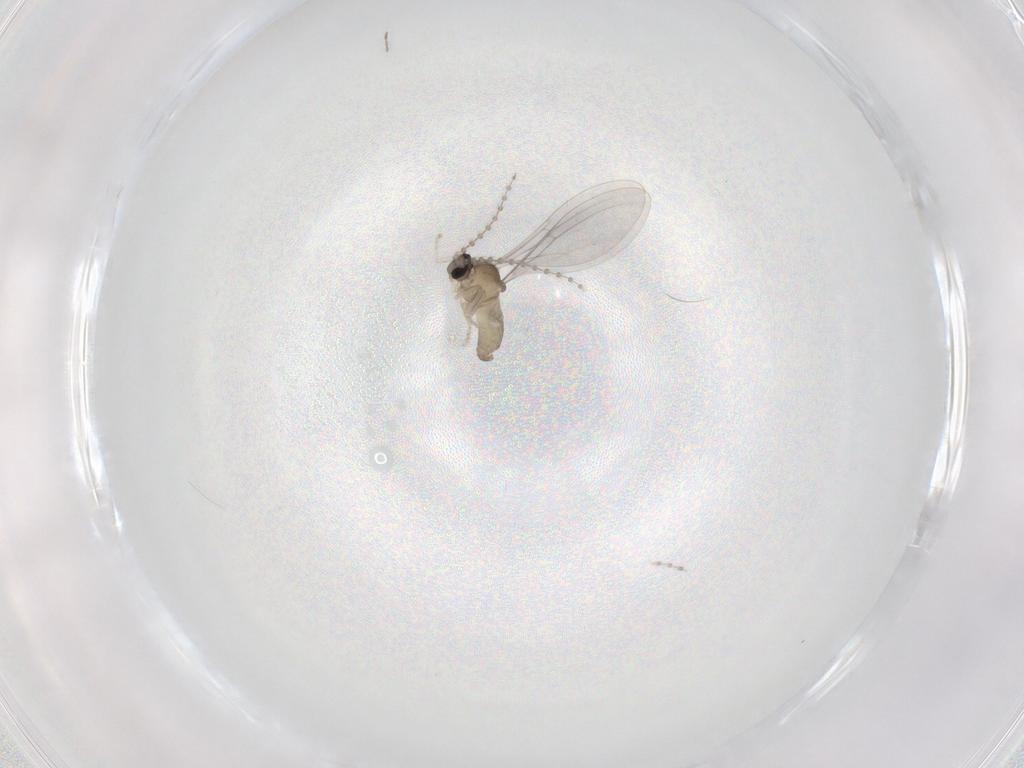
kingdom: Animalia
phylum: Arthropoda
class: Insecta
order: Diptera
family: Cecidomyiidae
